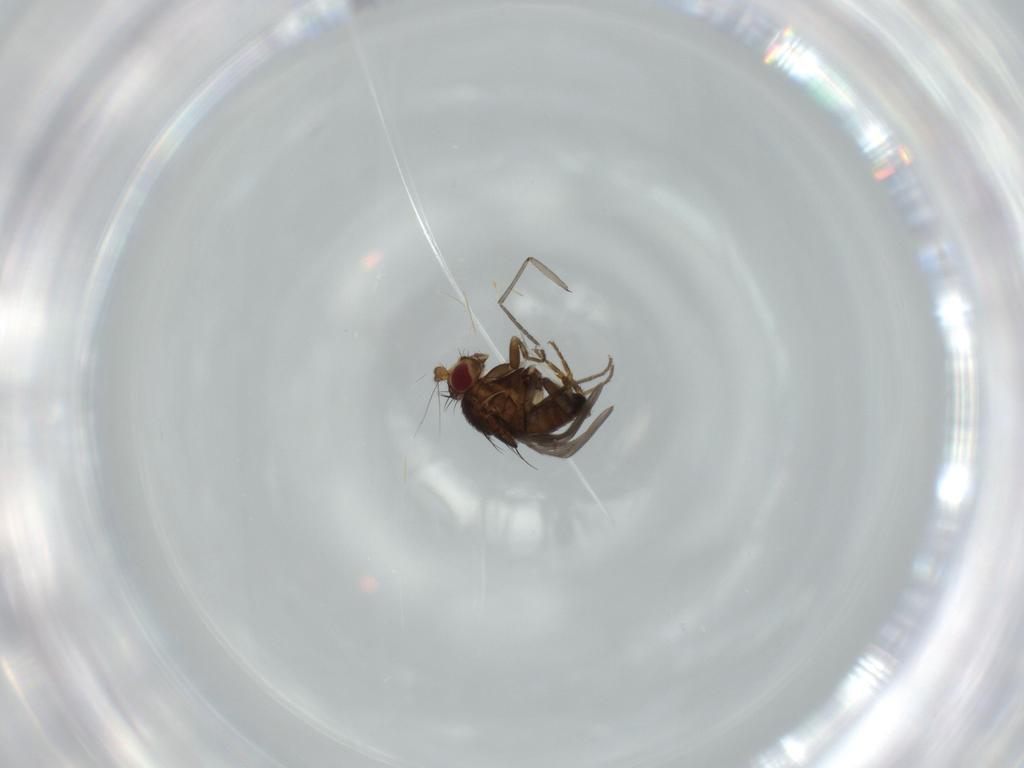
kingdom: Animalia
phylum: Arthropoda
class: Insecta
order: Diptera
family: Sphaeroceridae
